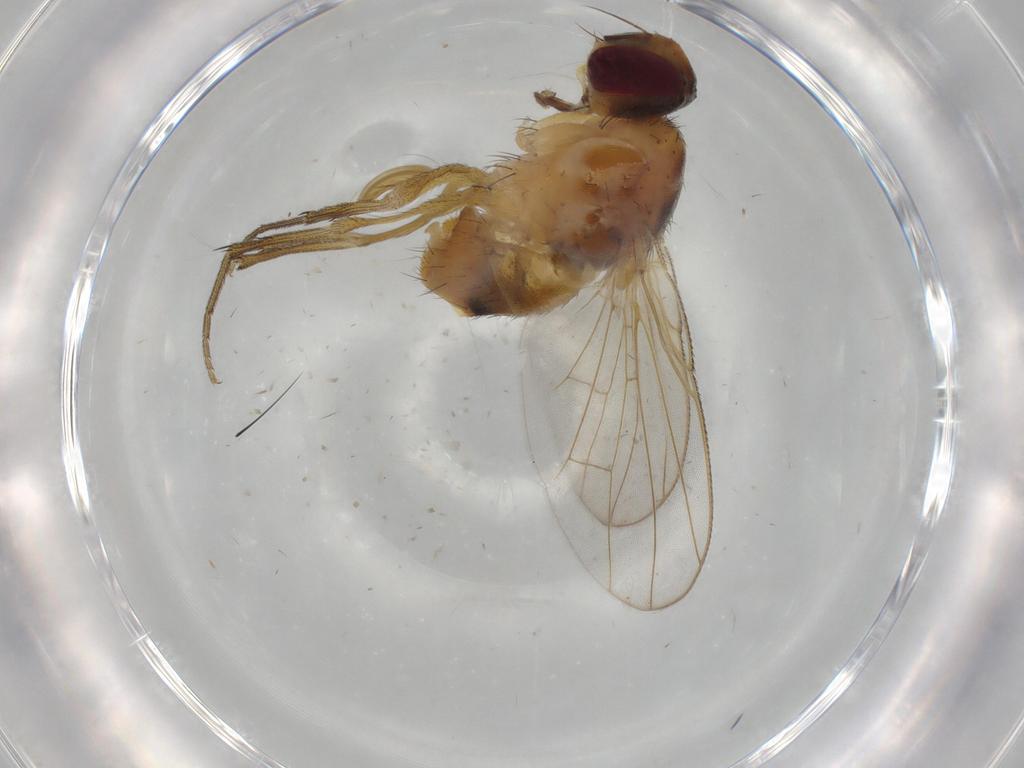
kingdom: Animalia
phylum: Arthropoda
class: Insecta
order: Diptera
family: Muscidae
